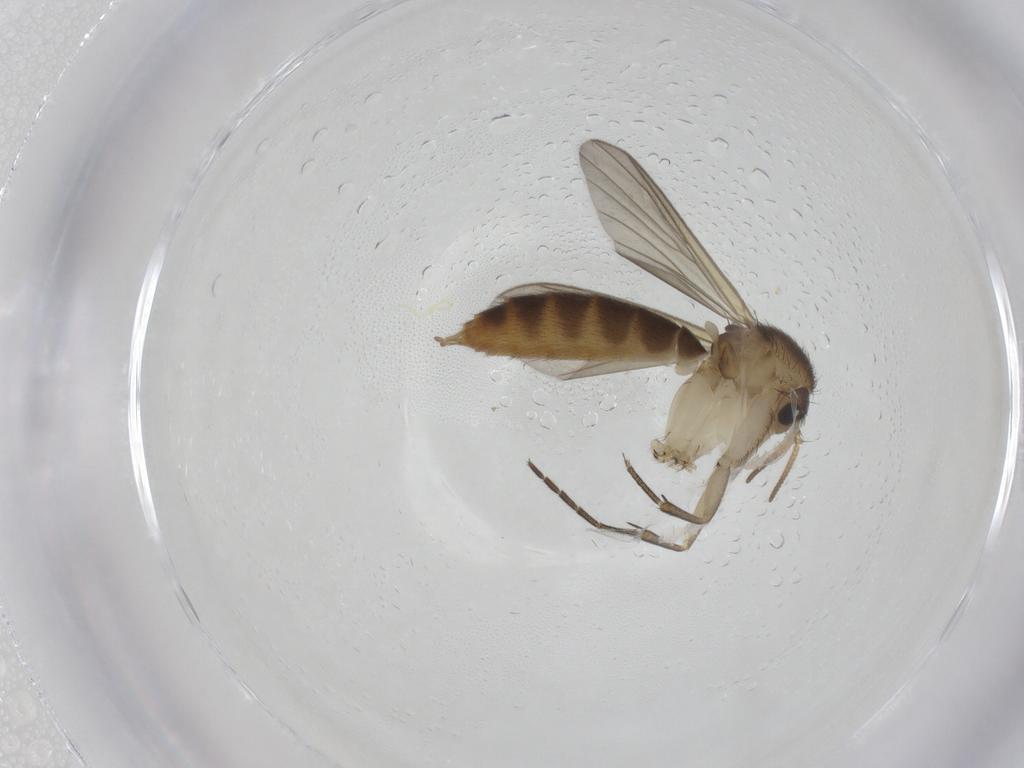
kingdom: Animalia
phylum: Arthropoda
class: Insecta
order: Diptera
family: Mycetophilidae
